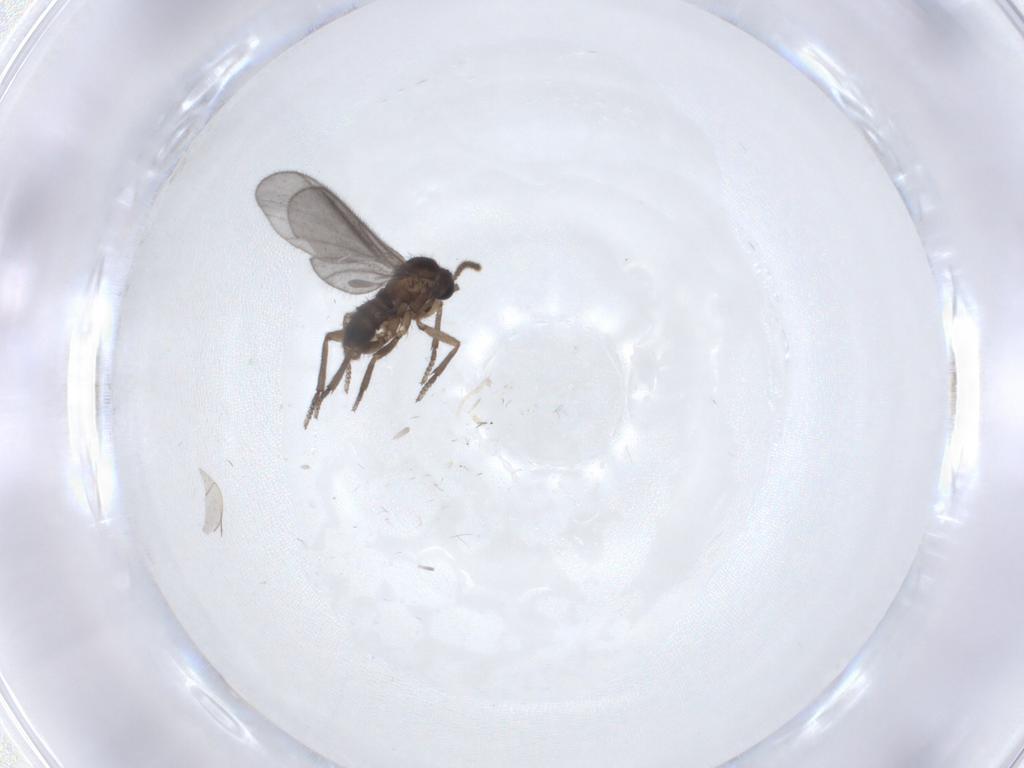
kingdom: Animalia
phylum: Arthropoda
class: Insecta
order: Diptera
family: Sciaridae
